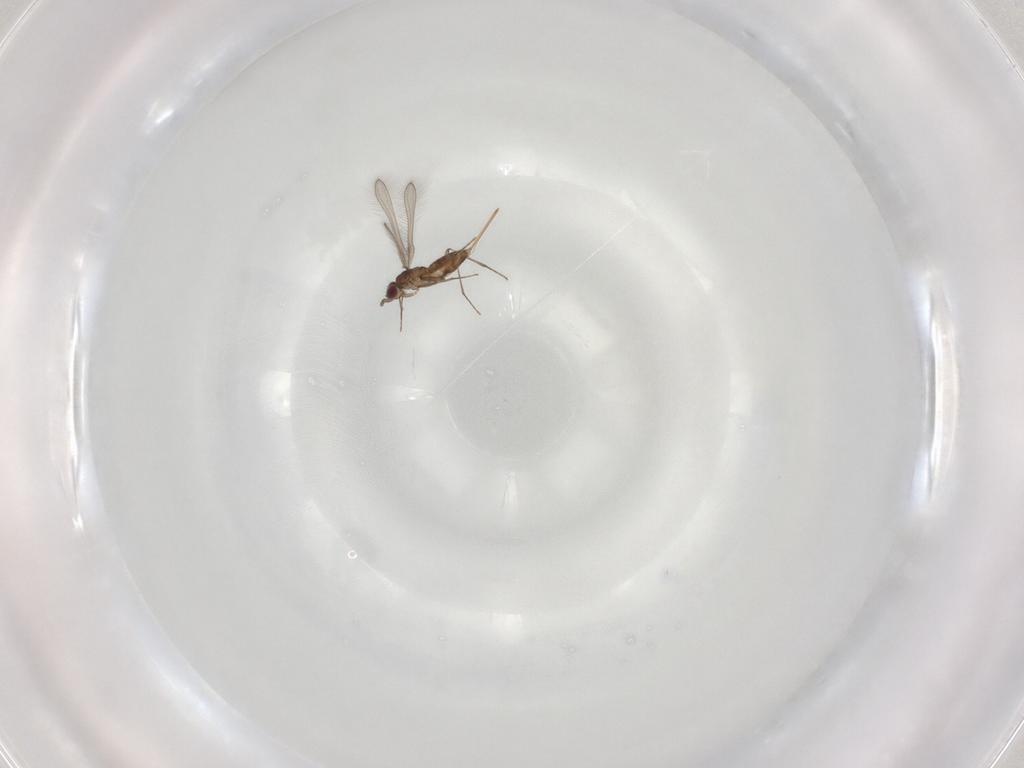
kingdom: Animalia
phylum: Arthropoda
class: Insecta
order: Hymenoptera
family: Mymaridae
